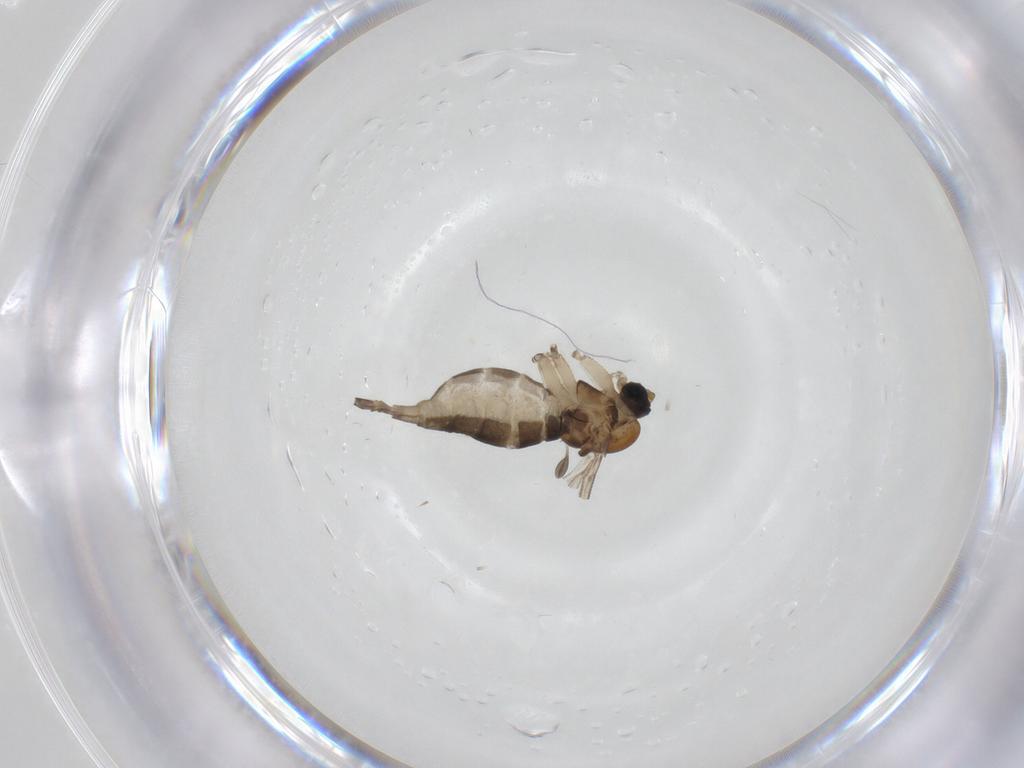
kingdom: Animalia
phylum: Arthropoda
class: Insecta
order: Diptera
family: Sciaridae
